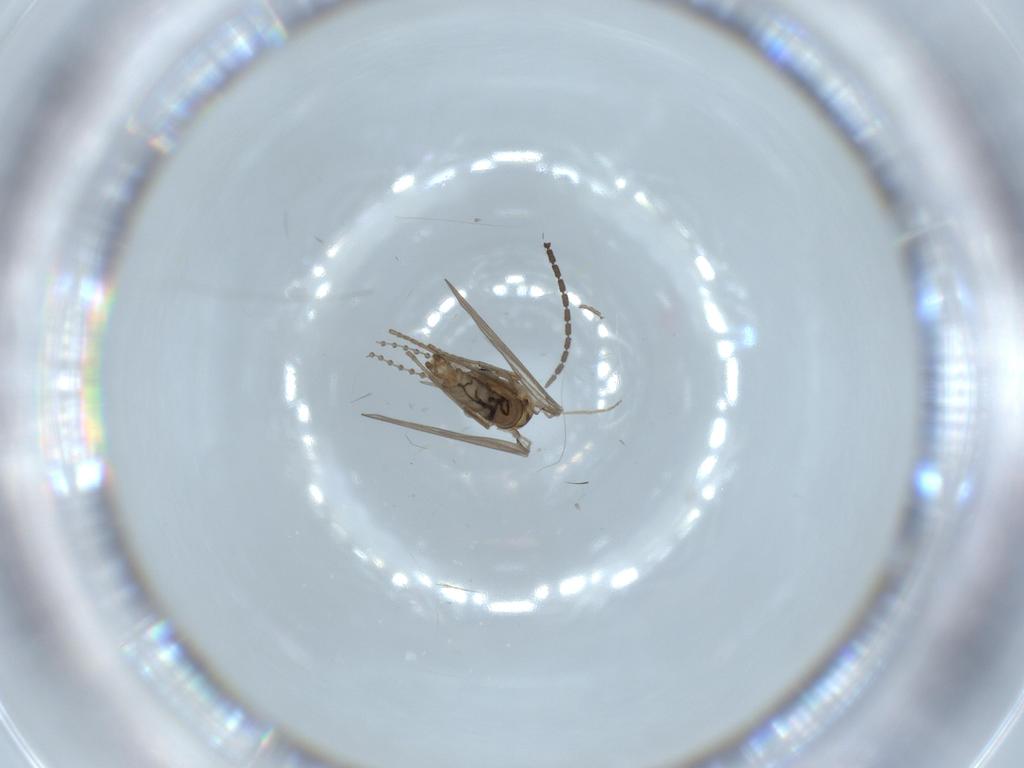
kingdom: Animalia
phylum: Arthropoda
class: Insecta
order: Diptera
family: Psychodidae
